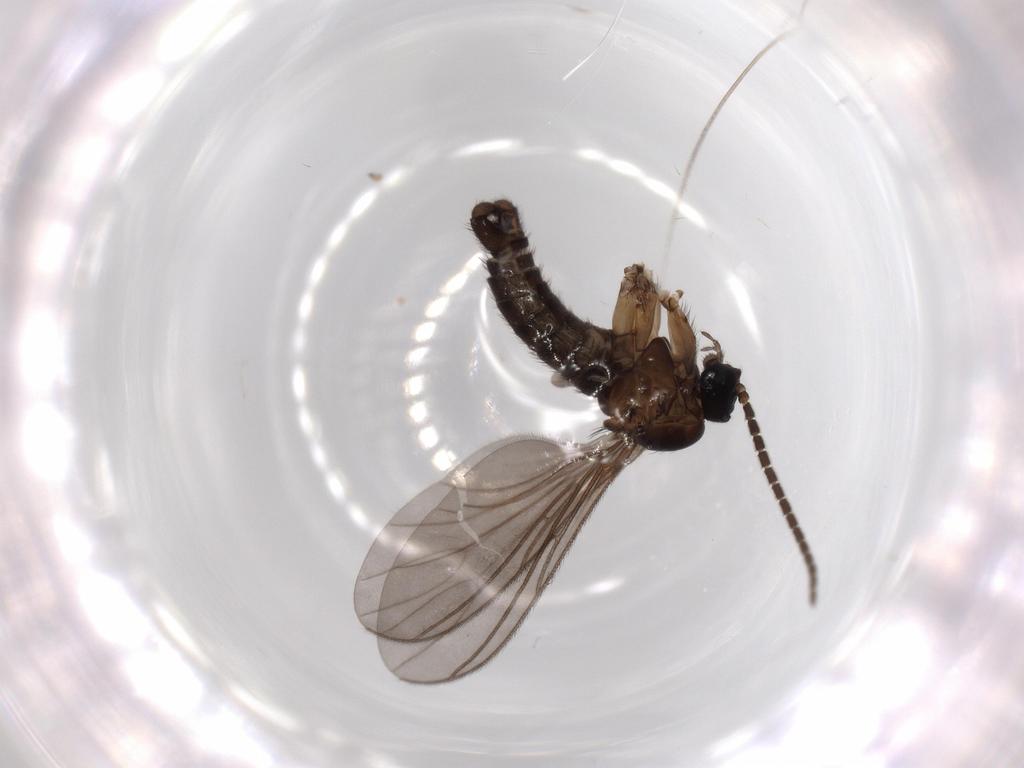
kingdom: Animalia
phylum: Arthropoda
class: Insecta
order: Diptera
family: Sciaridae
